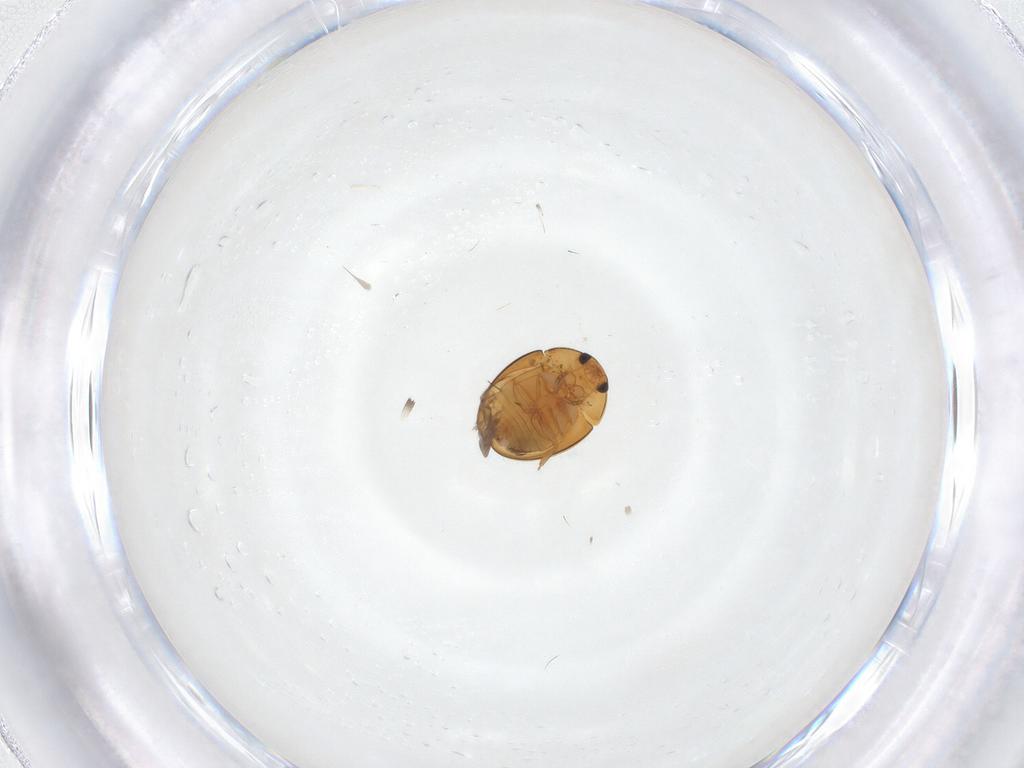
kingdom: Animalia
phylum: Arthropoda
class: Insecta
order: Coleoptera
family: Phalacridae
